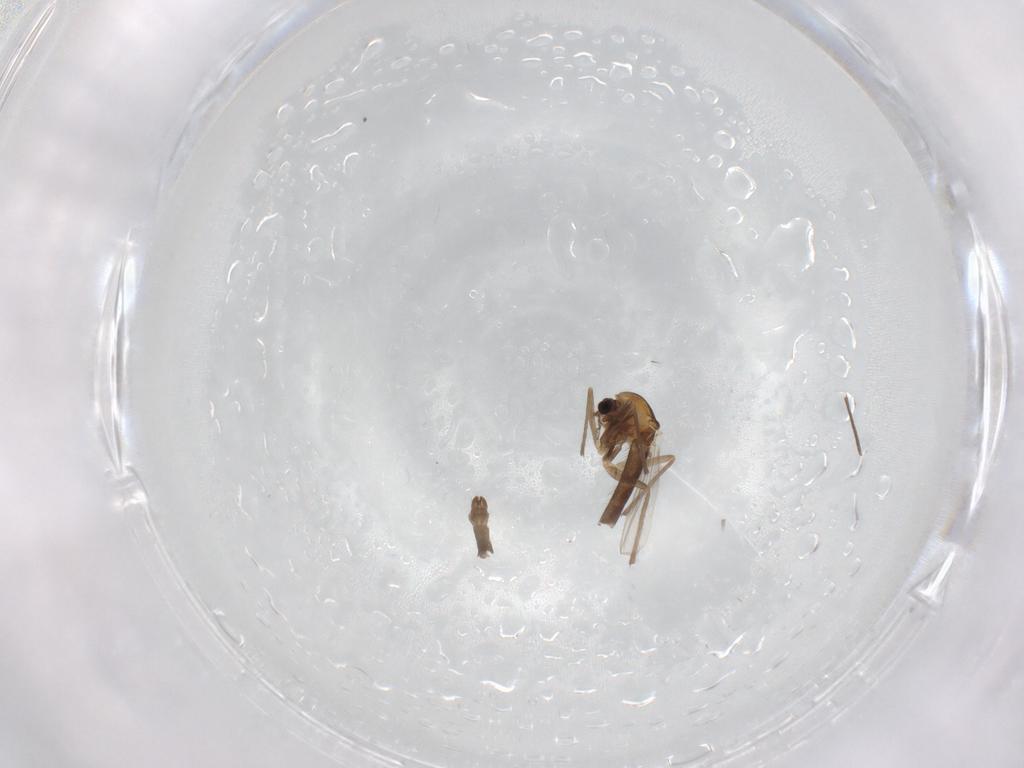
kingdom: Animalia
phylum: Arthropoda
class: Insecta
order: Diptera
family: Chironomidae
